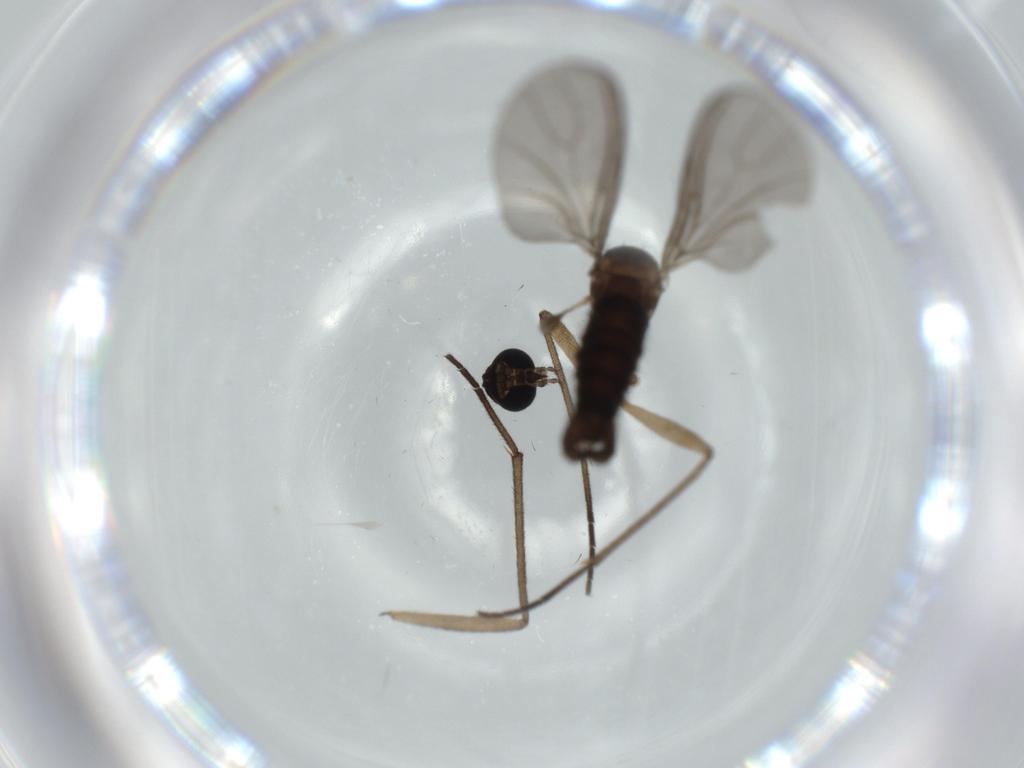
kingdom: Animalia
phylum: Arthropoda
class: Insecta
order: Diptera
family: Sciaridae
